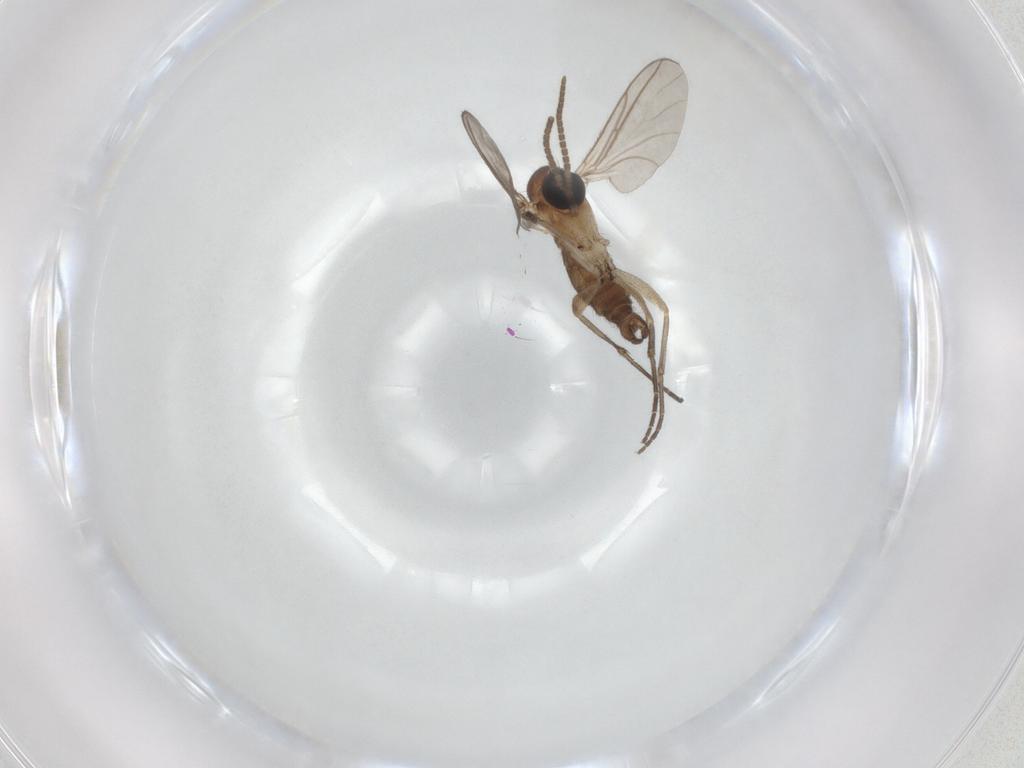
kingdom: Animalia
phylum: Arthropoda
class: Insecta
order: Diptera
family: Sciaridae
